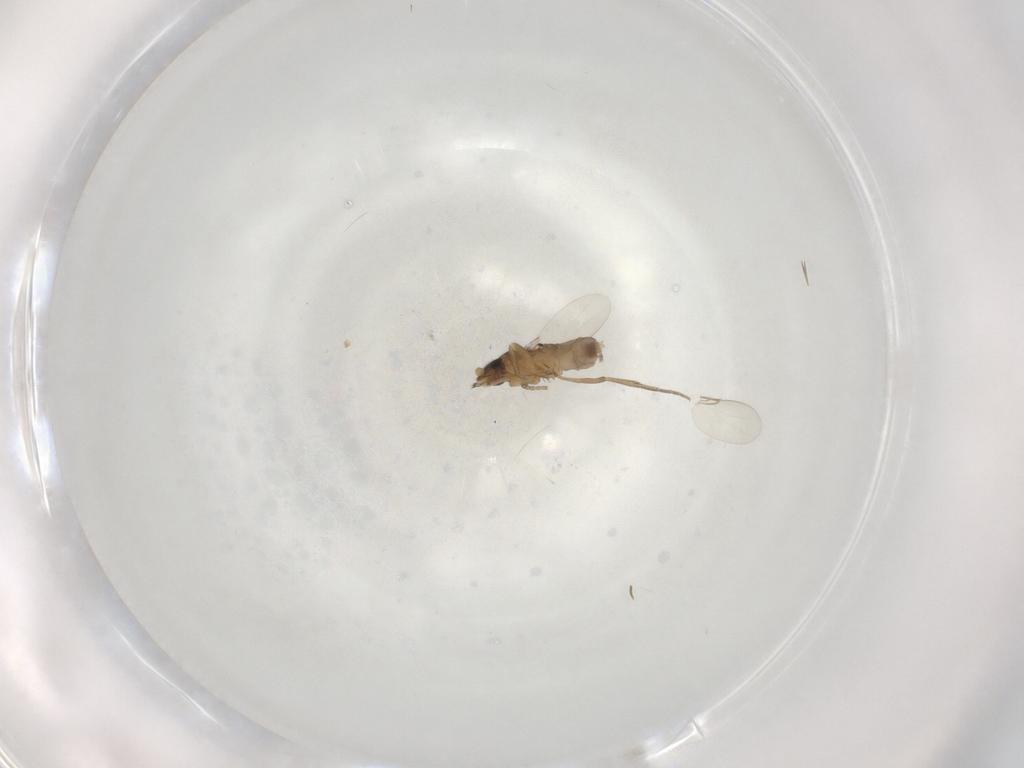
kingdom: Animalia
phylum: Arthropoda
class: Insecta
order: Diptera
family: Phoridae
